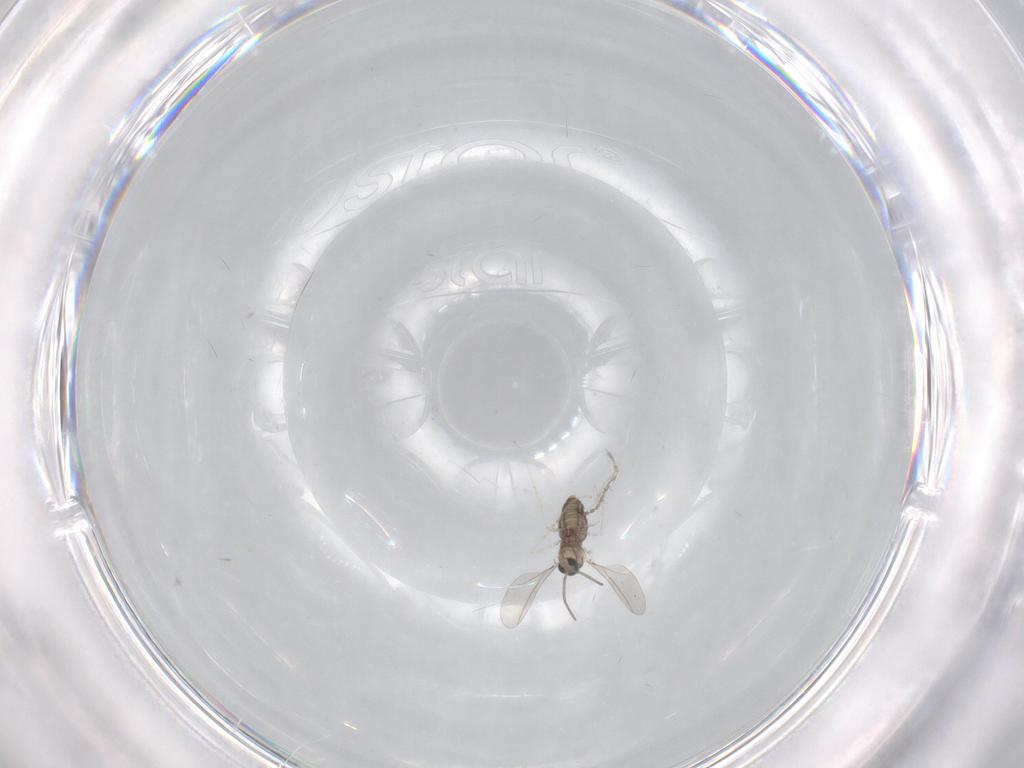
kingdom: Animalia
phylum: Arthropoda
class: Insecta
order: Diptera
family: Cecidomyiidae
